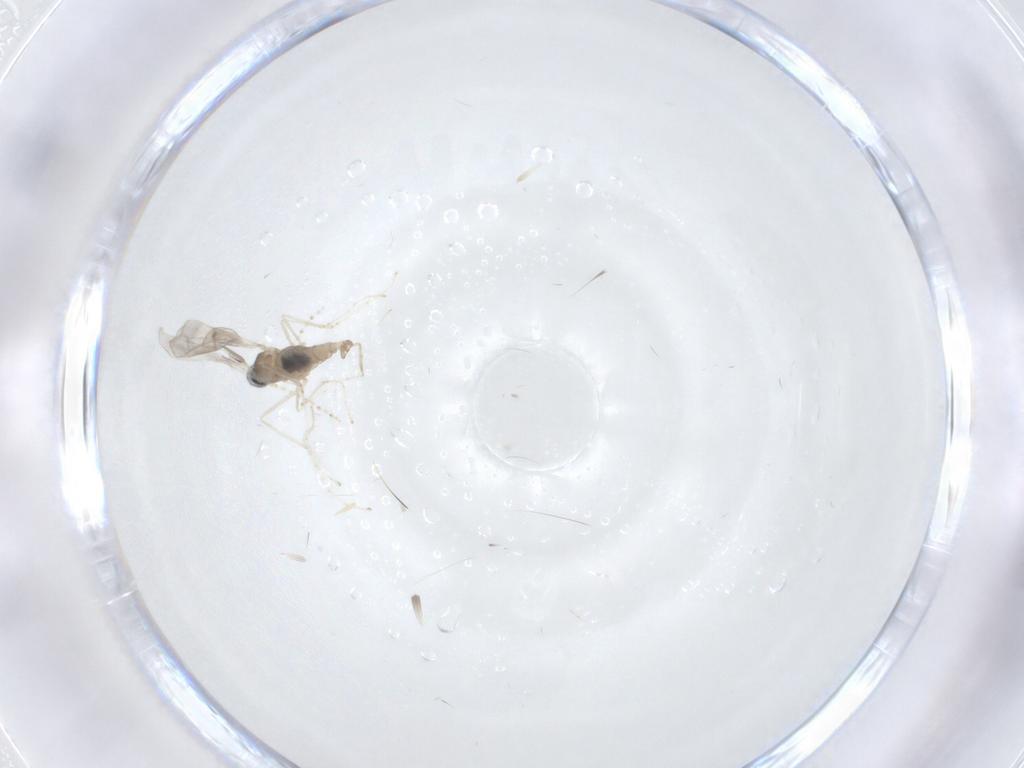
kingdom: Animalia
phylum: Arthropoda
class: Insecta
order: Diptera
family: Cecidomyiidae
